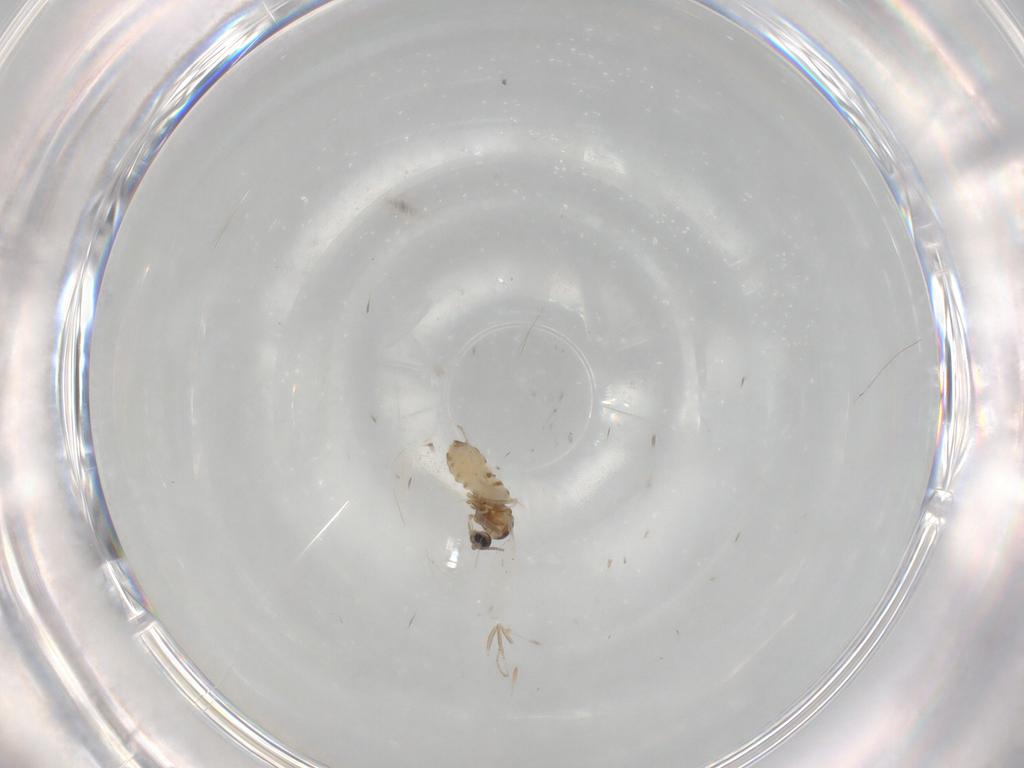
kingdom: Animalia
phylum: Arthropoda
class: Insecta
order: Diptera
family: Cecidomyiidae
